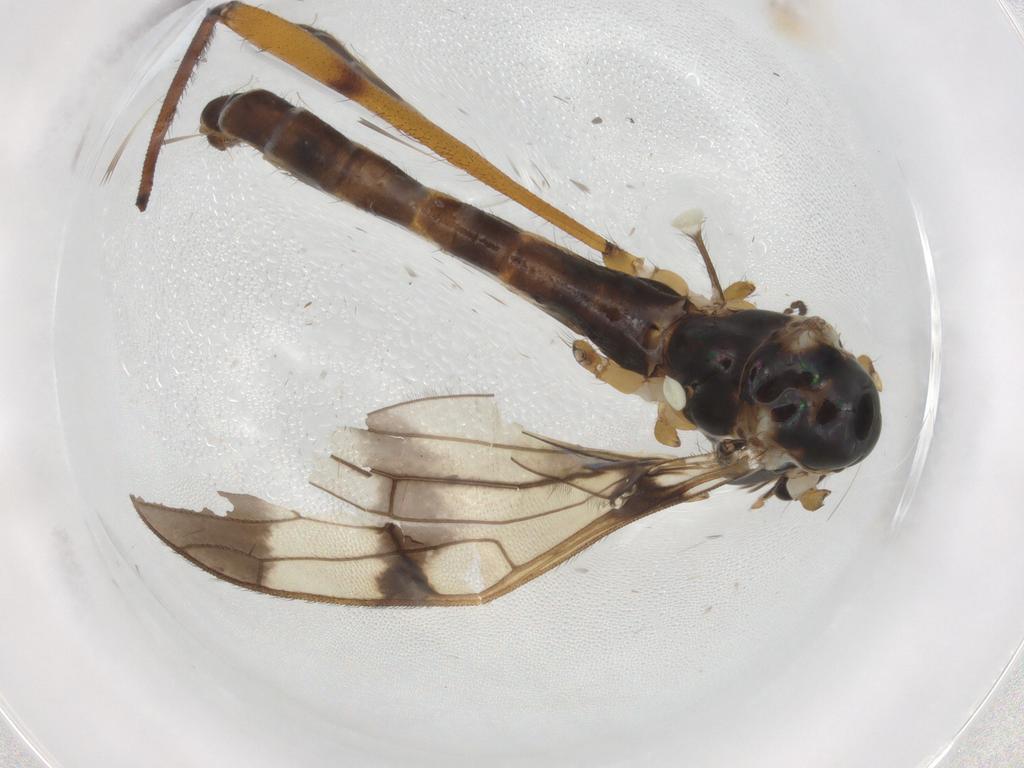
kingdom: Animalia
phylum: Arthropoda
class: Insecta
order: Diptera
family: Limoniidae
